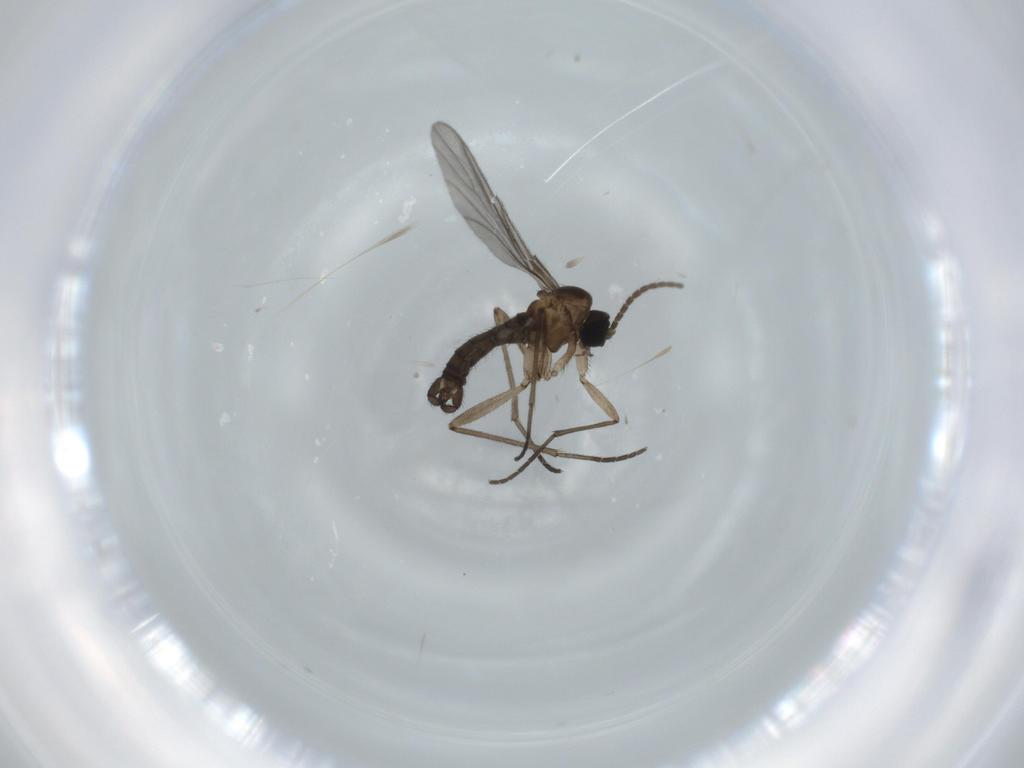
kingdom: Animalia
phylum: Arthropoda
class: Insecta
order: Diptera
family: Sciaridae
